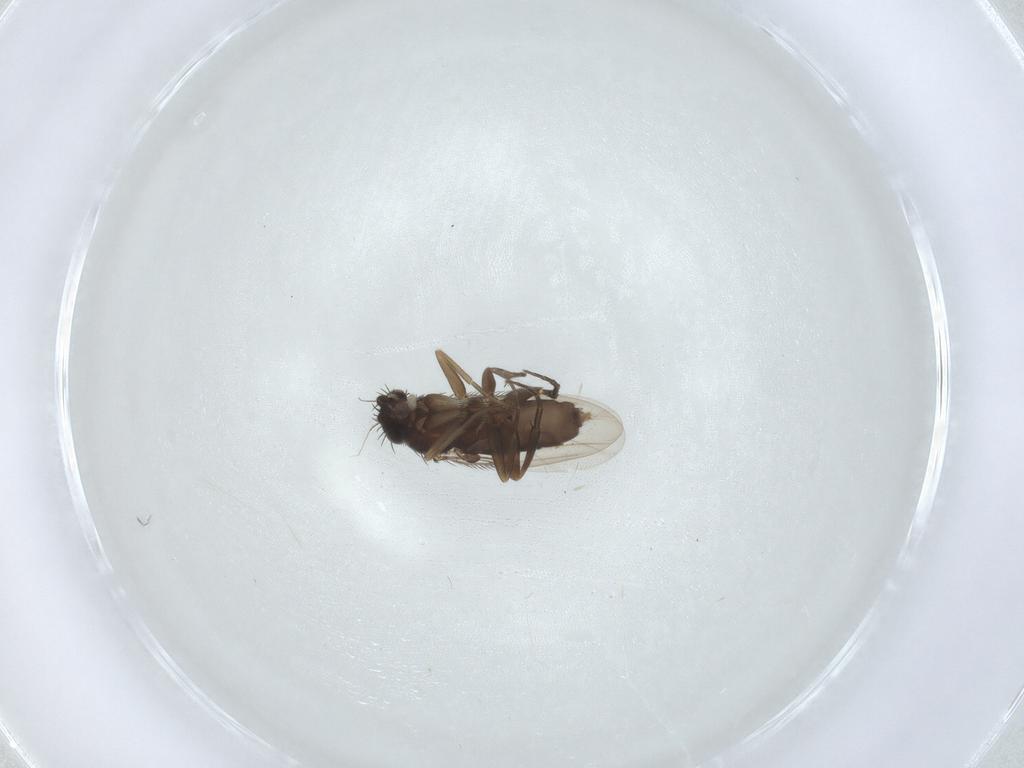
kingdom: Animalia
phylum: Arthropoda
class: Insecta
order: Diptera
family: Phoridae
